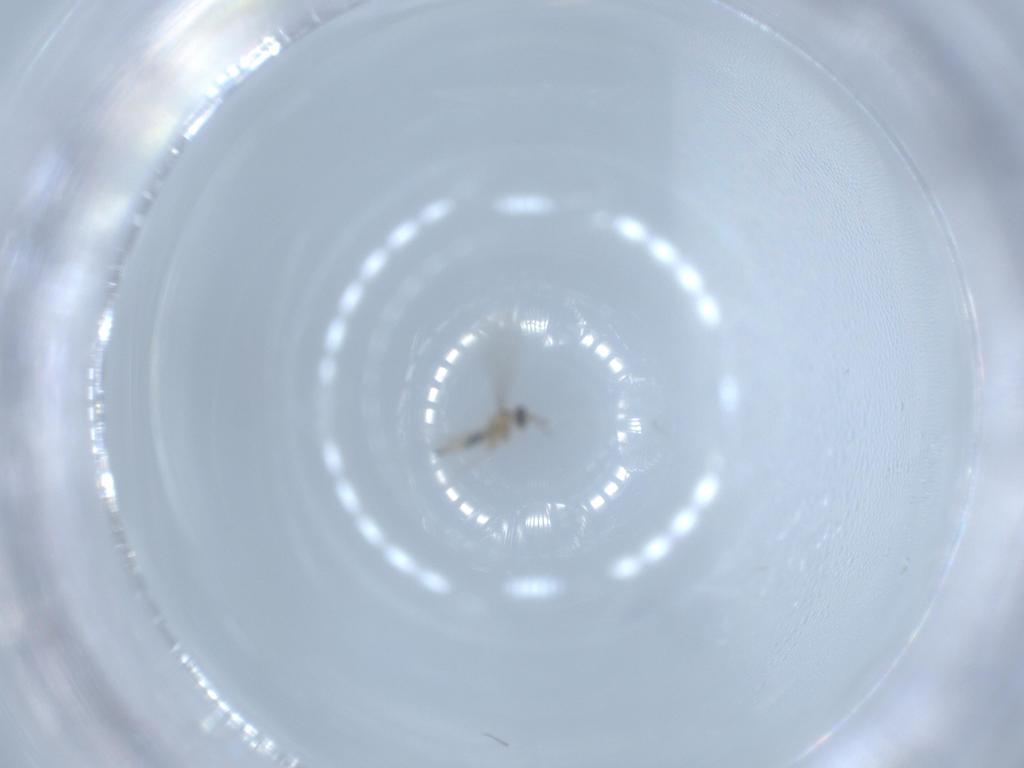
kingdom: Animalia
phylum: Arthropoda
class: Insecta
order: Diptera
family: Cecidomyiidae
